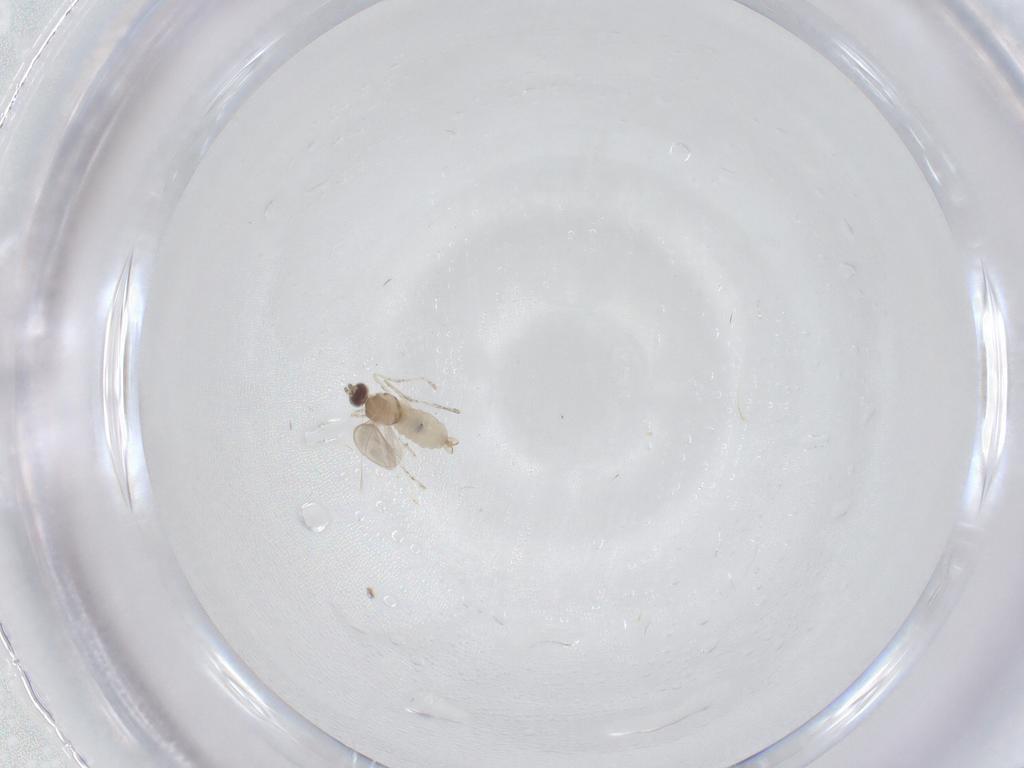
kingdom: Animalia
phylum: Arthropoda
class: Insecta
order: Diptera
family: Cecidomyiidae
